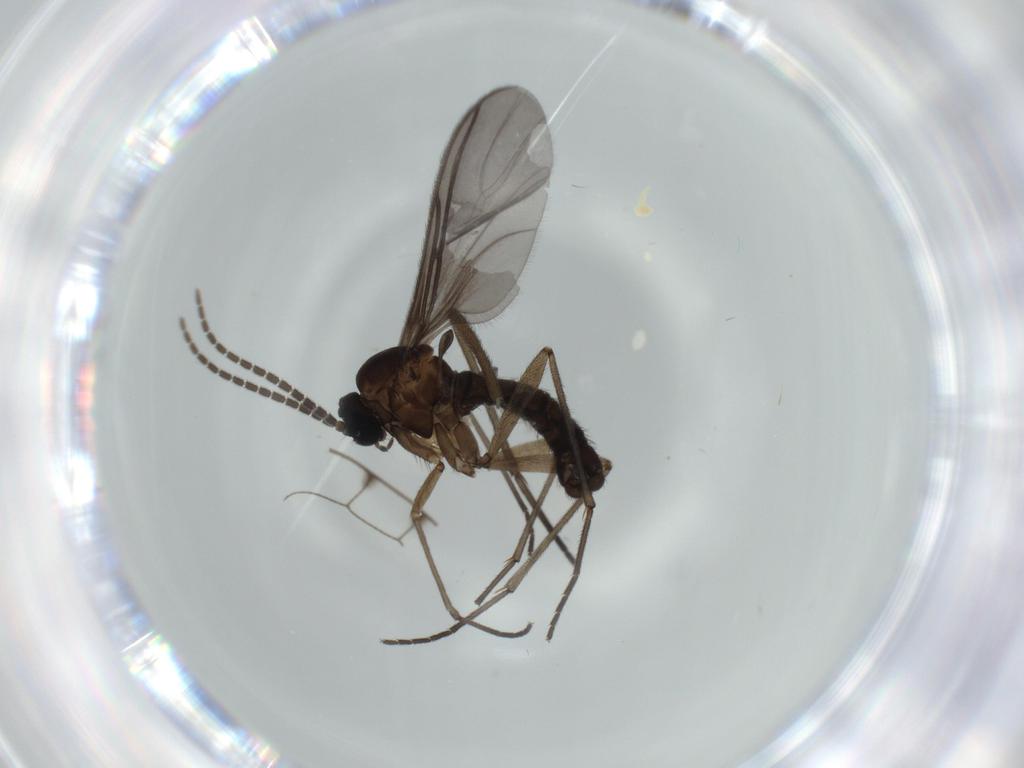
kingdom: Animalia
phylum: Arthropoda
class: Insecta
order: Diptera
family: Sciaridae
